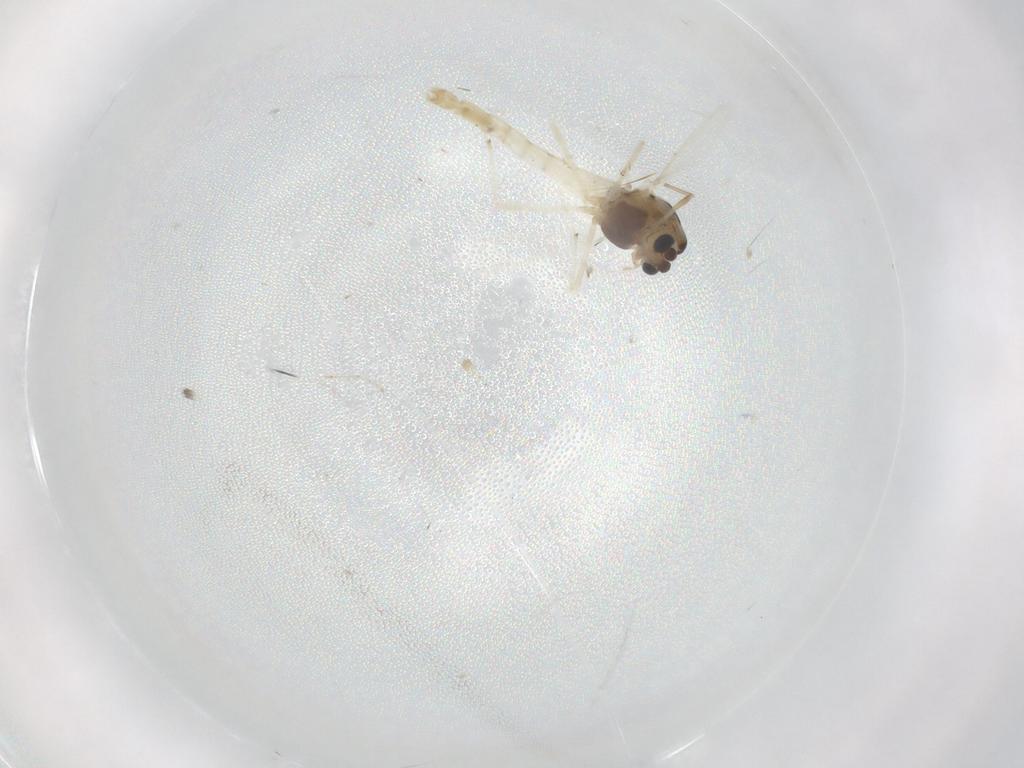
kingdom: Animalia
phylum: Arthropoda
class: Insecta
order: Diptera
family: Chironomidae
